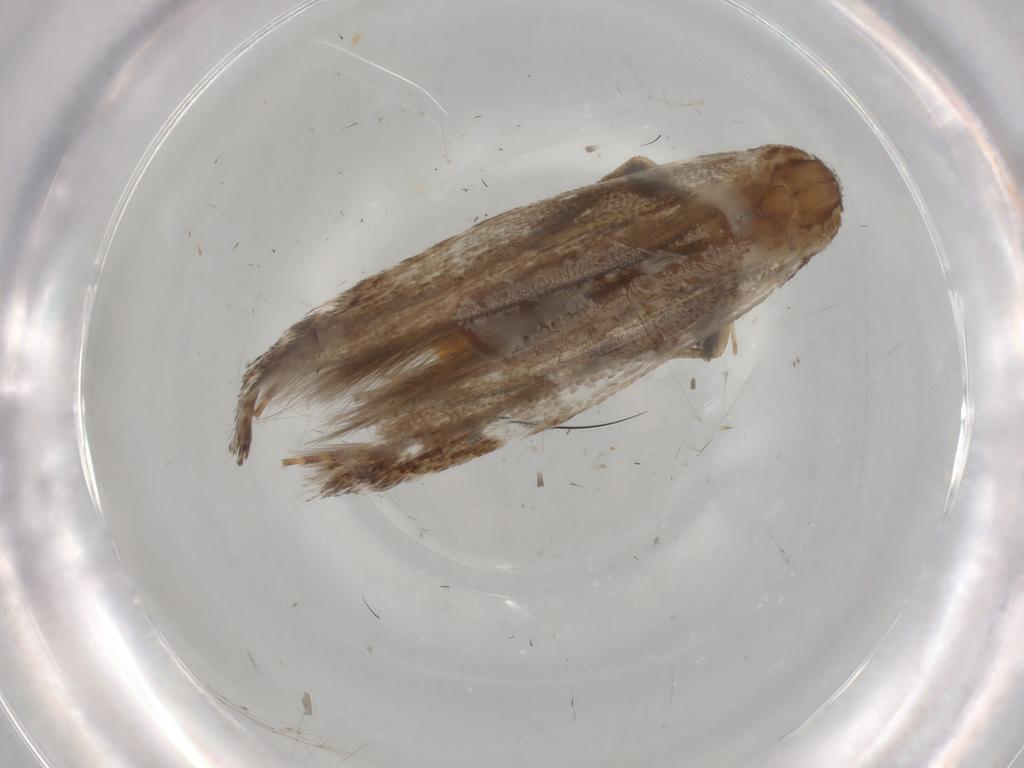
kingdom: Animalia
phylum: Arthropoda
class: Insecta
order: Lepidoptera
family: Gracillariidae
